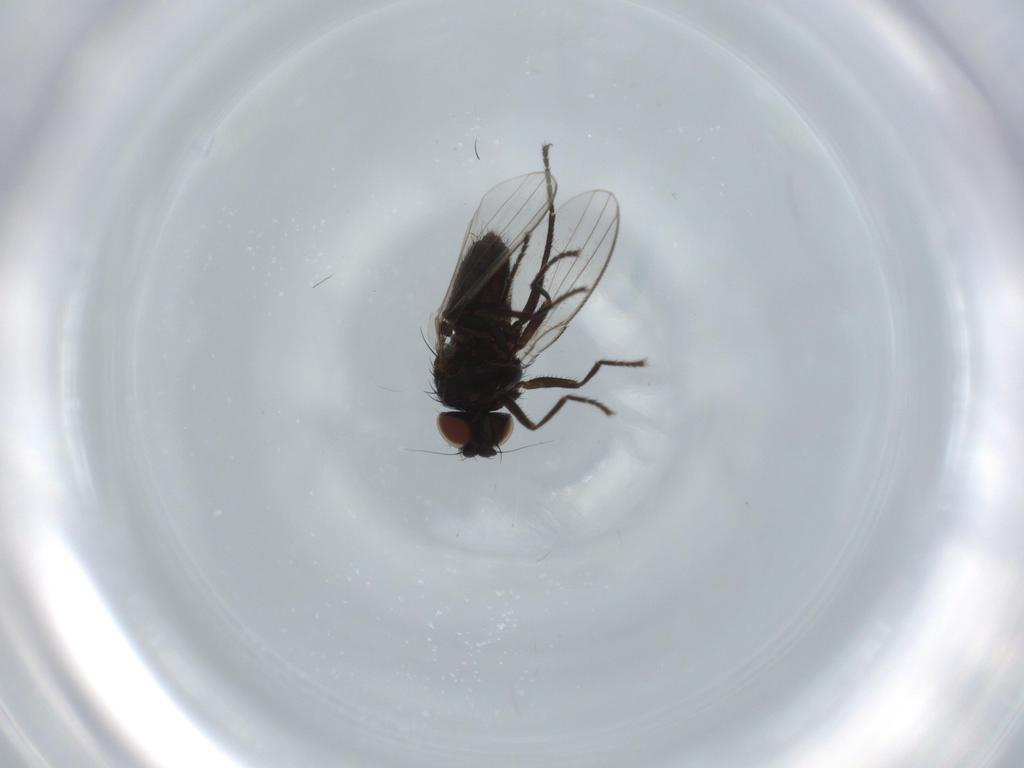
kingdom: Animalia
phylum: Arthropoda
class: Insecta
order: Diptera
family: Milichiidae
